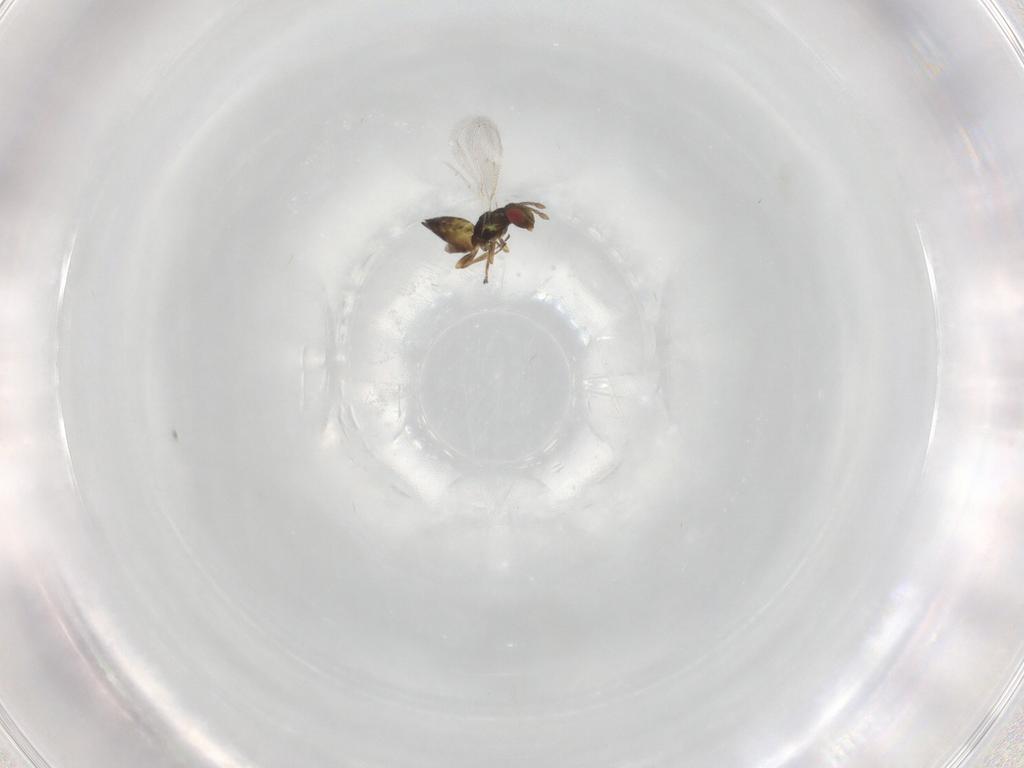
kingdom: Animalia
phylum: Arthropoda
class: Insecta
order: Hymenoptera
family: Eulophidae
